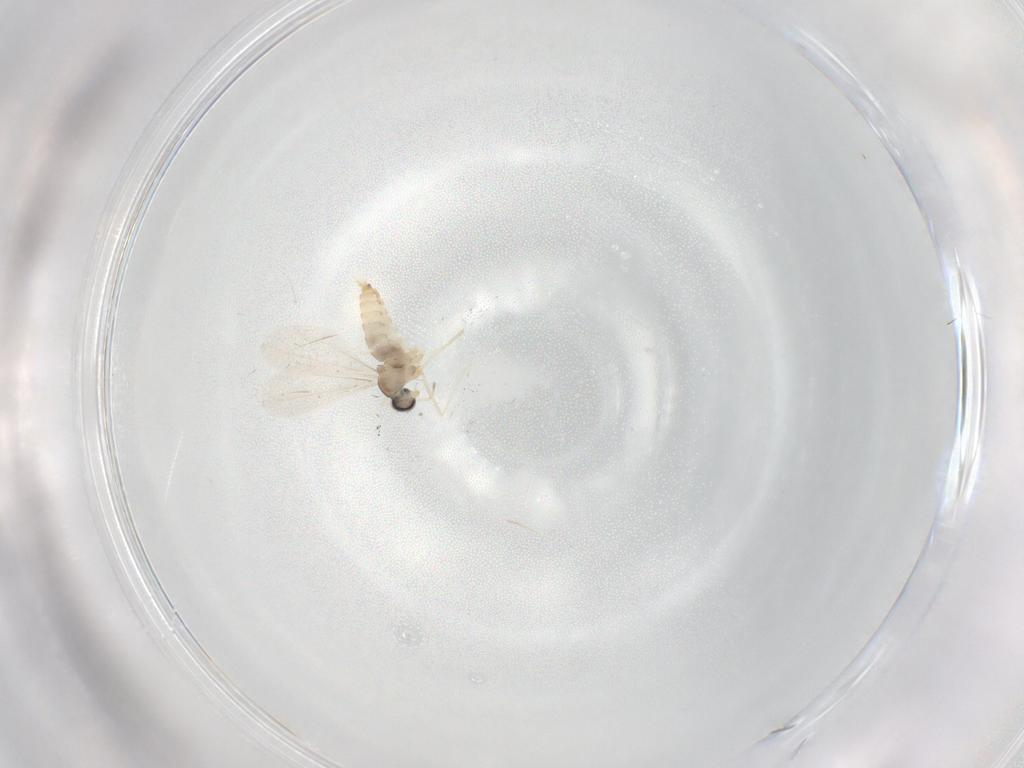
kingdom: Animalia
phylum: Arthropoda
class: Insecta
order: Diptera
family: Cecidomyiidae
